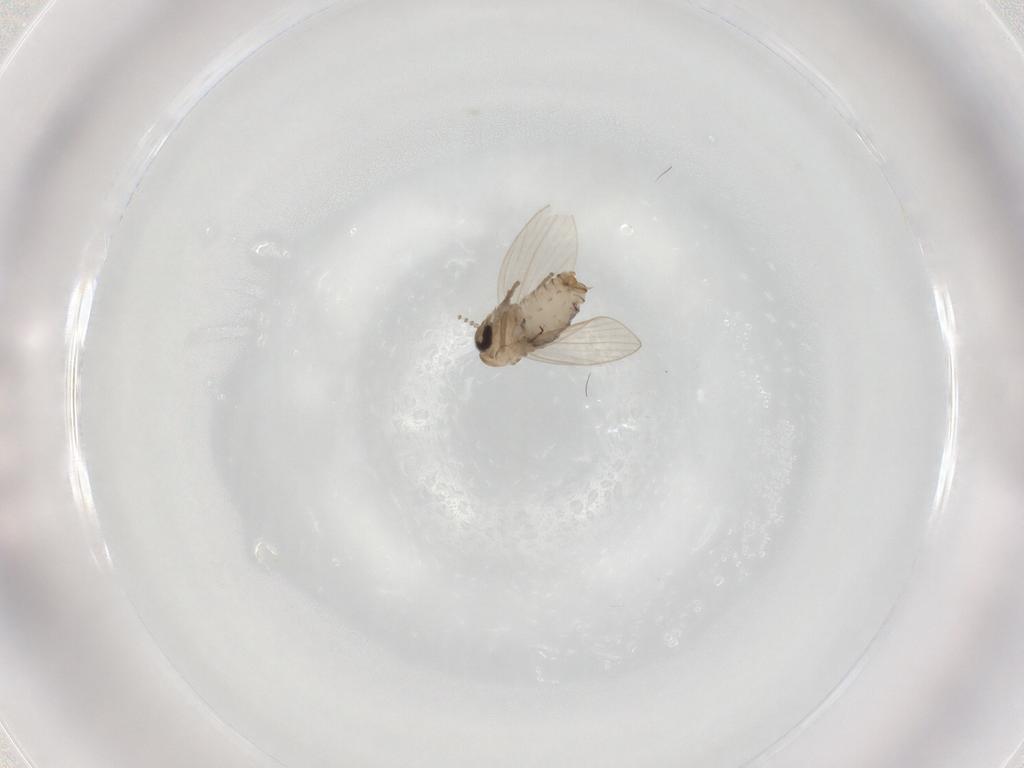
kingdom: Animalia
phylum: Arthropoda
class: Insecta
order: Diptera
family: Psychodidae
